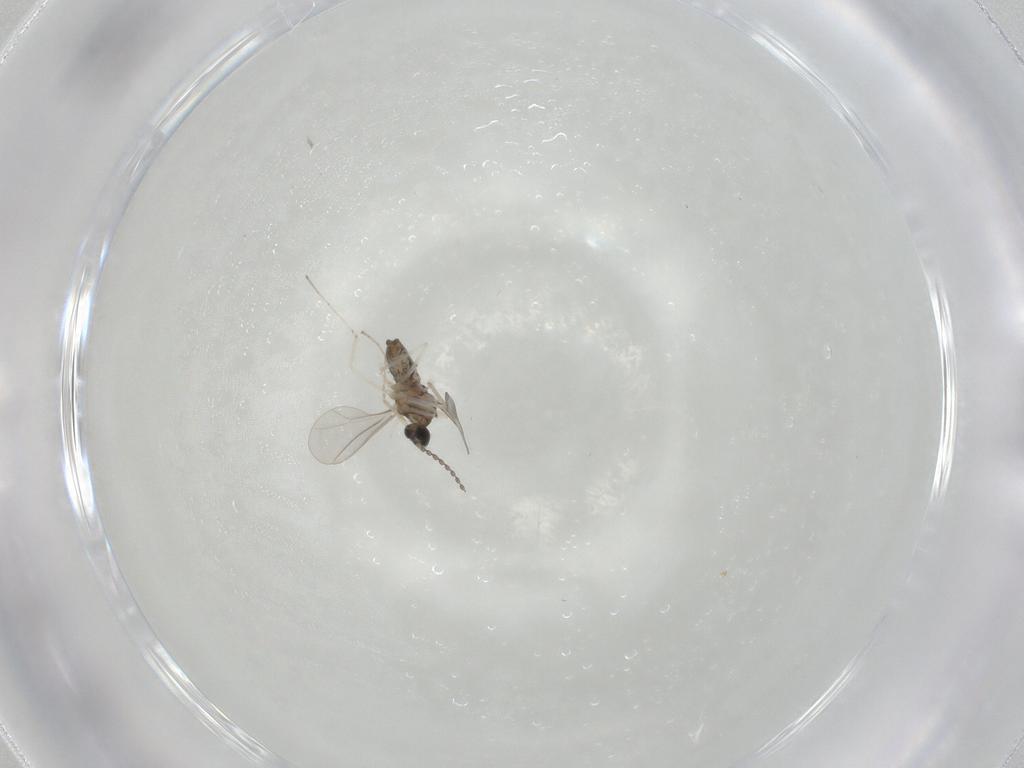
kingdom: Animalia
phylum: Arthropoda
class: Insecta
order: Diptera
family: Cecidomyiidae
